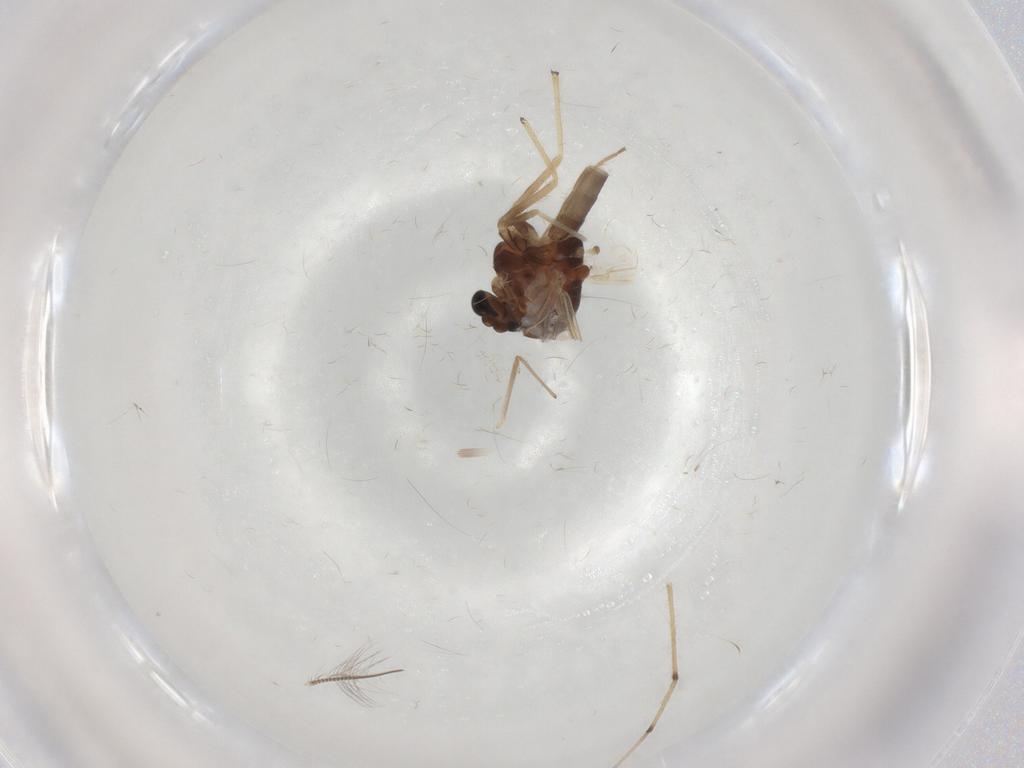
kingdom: Animalia
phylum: Arthropoda
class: Insecta
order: Diptera
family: Chironomidae
